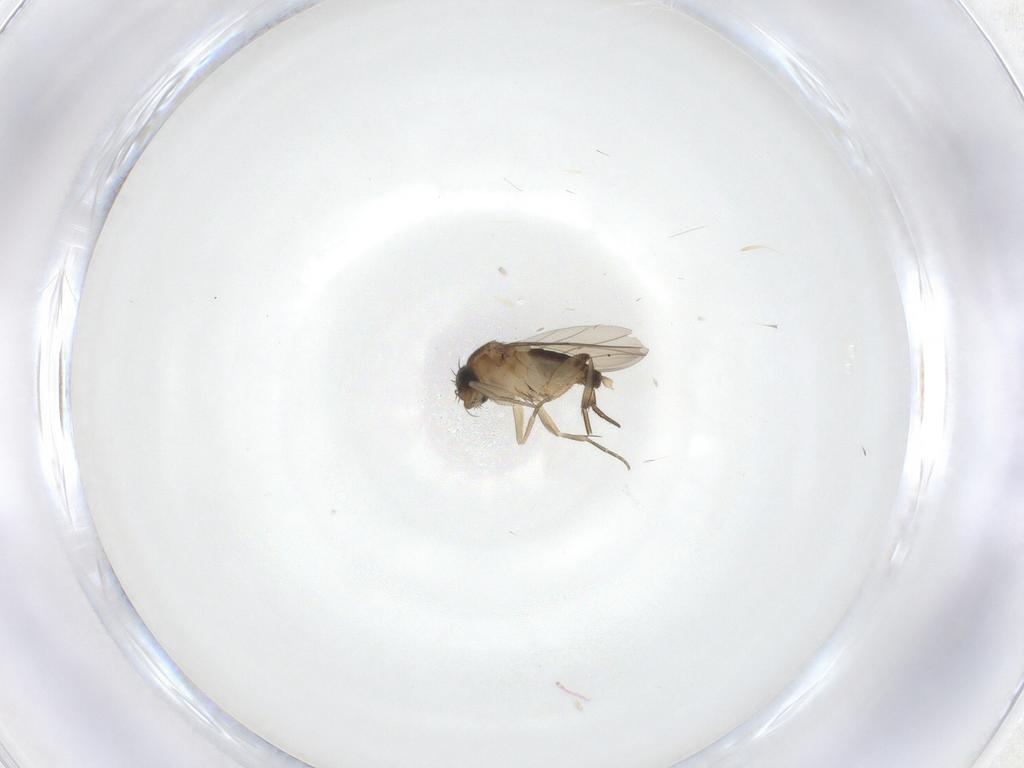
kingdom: Animalia
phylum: Arthropoda
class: Insecta
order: Diptera
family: Phoridae
